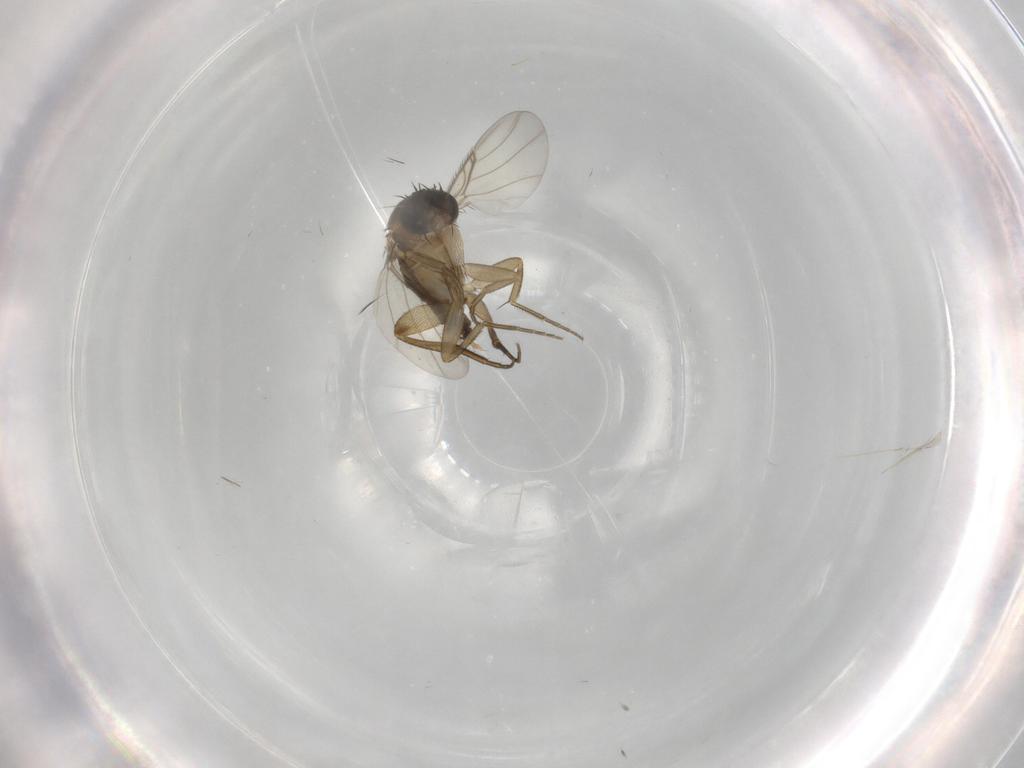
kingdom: Animalia
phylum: Arthropoda
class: Insecta
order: Diptera
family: Phoridae
